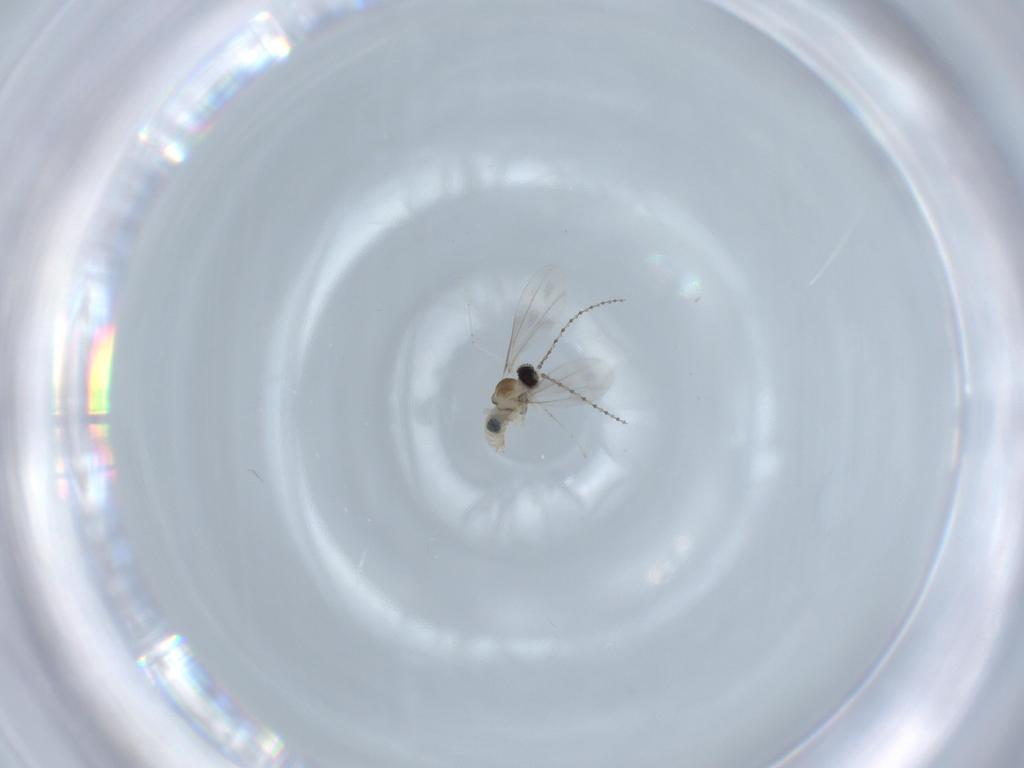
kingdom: Animalia
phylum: Arthropoda
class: Insecta
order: Diptera
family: Cecidomyiidae
